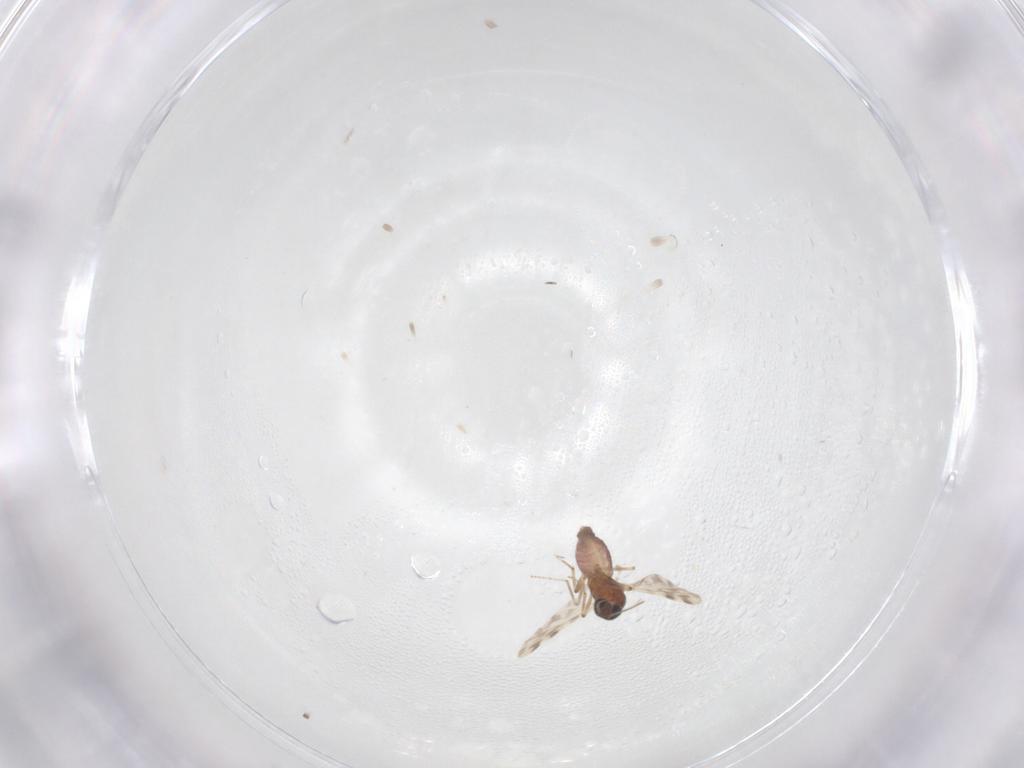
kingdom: Animalia
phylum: Arthropoda
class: Insecta
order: Diptera
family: Ceratopogonidae
